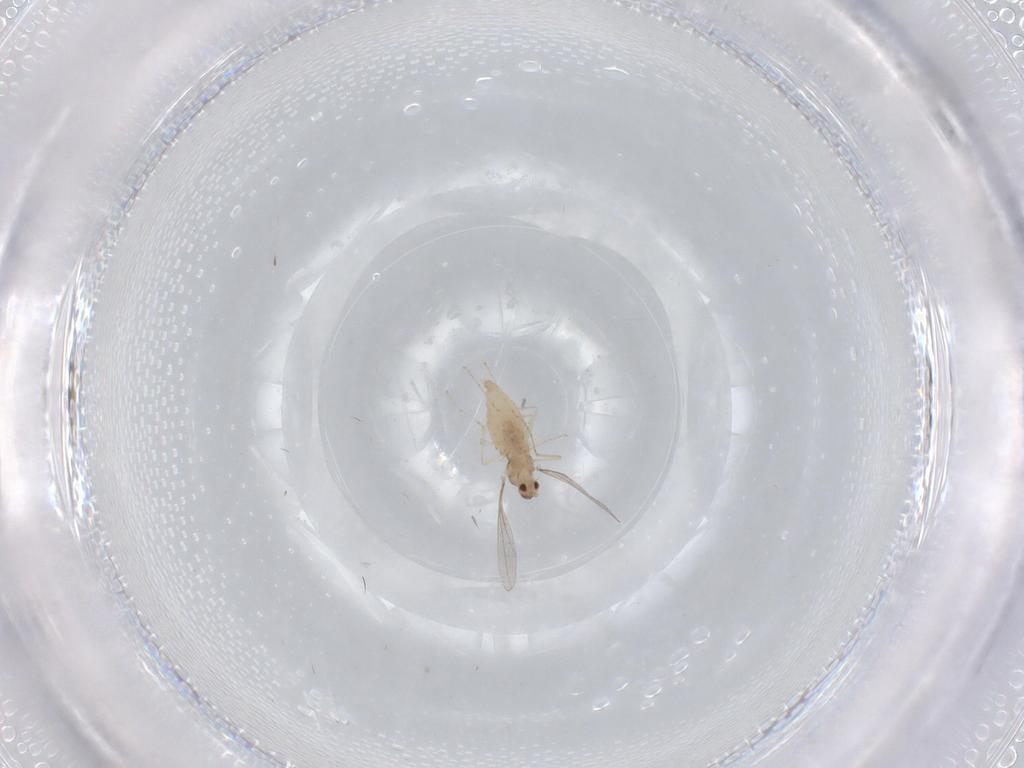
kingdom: Animalia
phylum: Arthropoda
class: Insecta
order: Diptera
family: Cecidomyiidae
